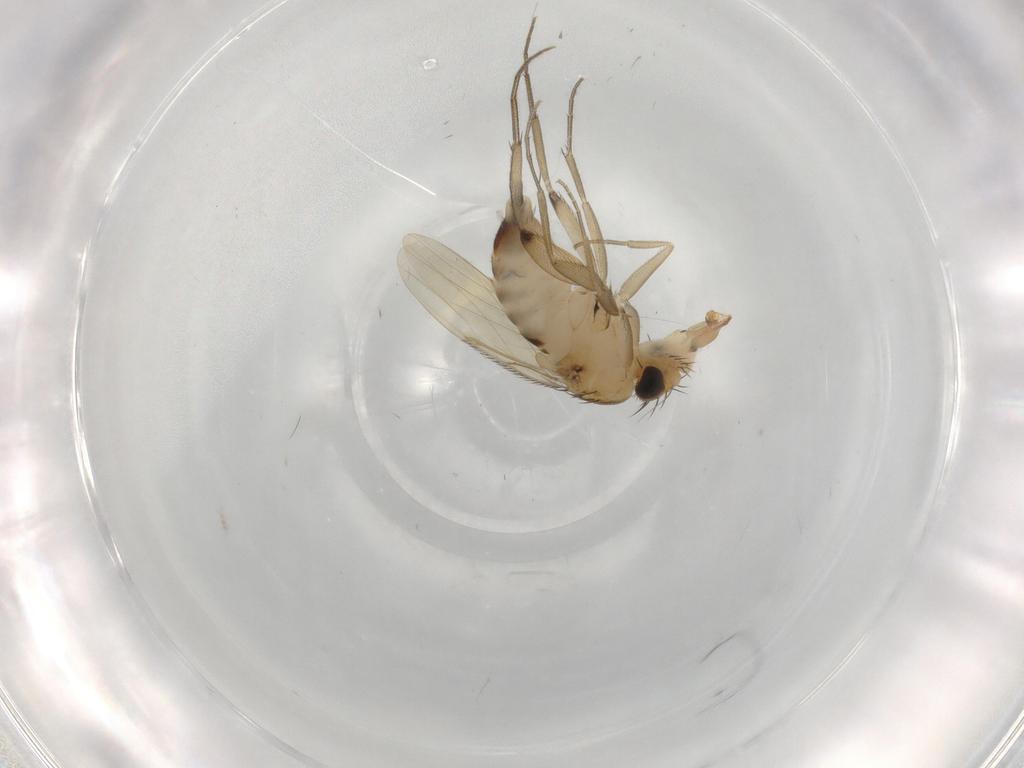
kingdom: Animalia
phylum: Arthropoda
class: Insecta
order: Diptera
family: Phoridae
